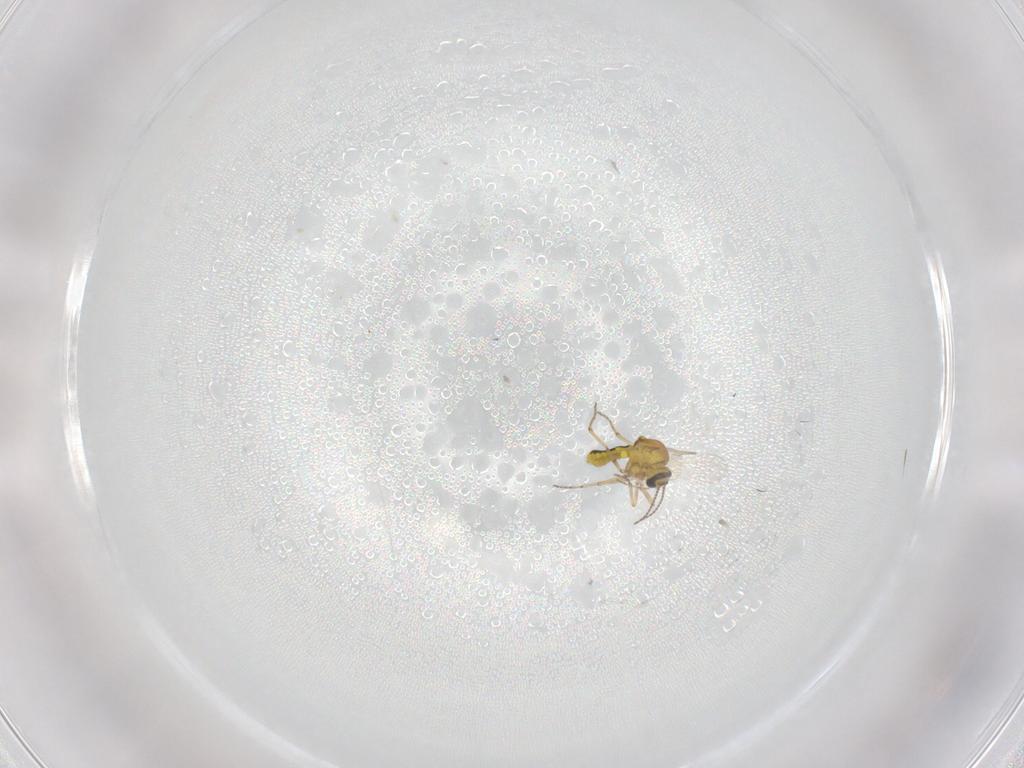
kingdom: Animalia
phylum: Arthropoda
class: Insecta
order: Diptera
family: Ceratopogonidae
